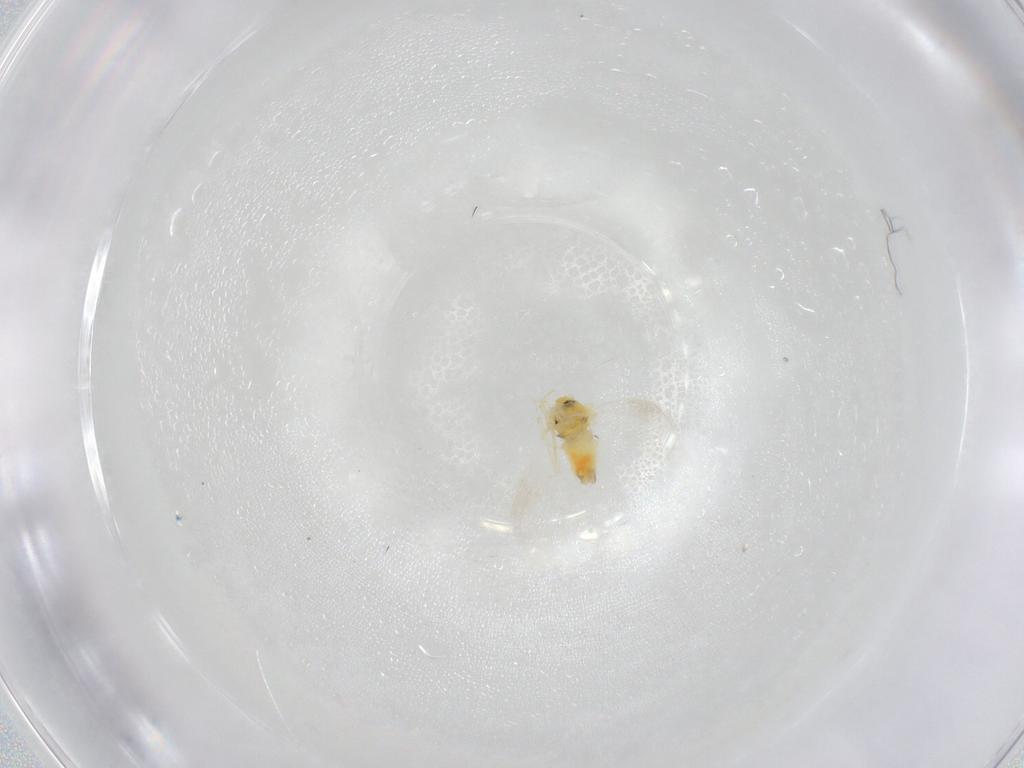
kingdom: Animalia
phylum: Arthropoda
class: Insecta
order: Hemiptera
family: Aleyrodidae
